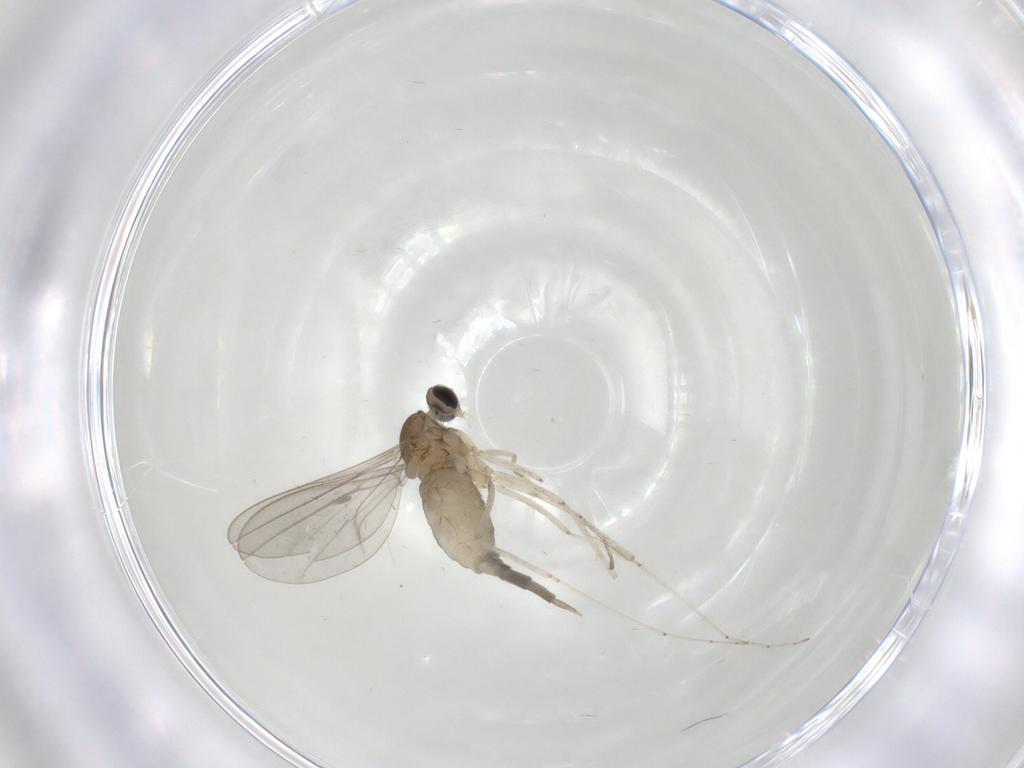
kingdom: Animalia
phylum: Arthropoda
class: Insecta
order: Diptera
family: Cecidomyiidae
